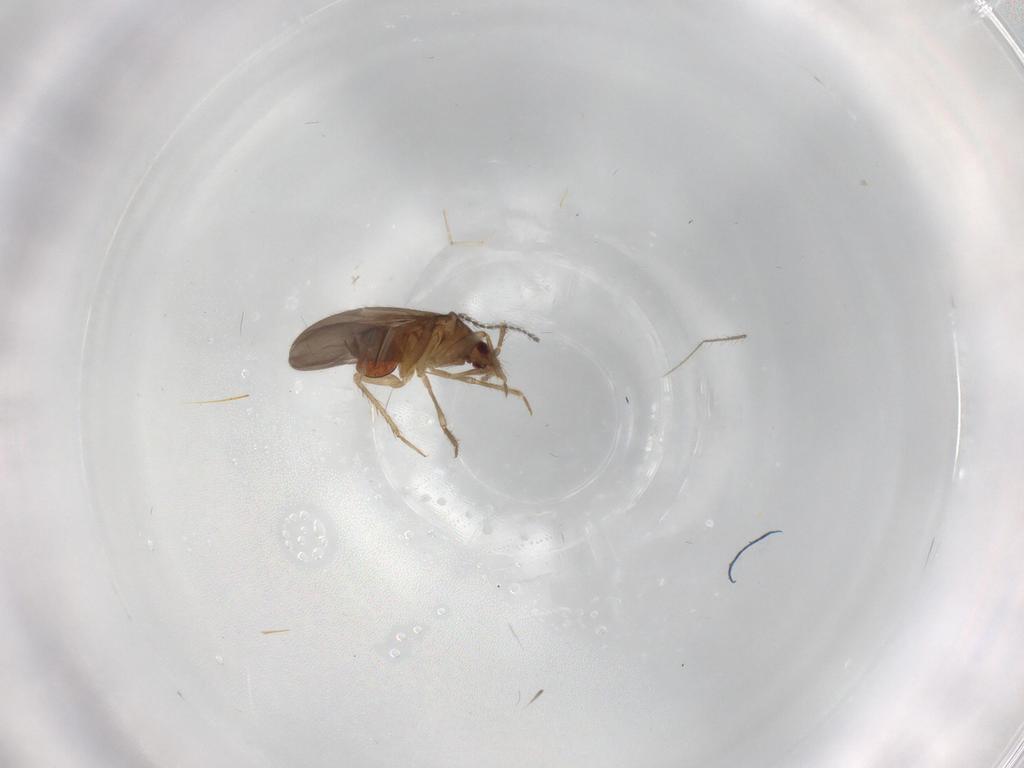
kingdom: Animalia
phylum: Arthropoda
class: Insecta
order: Hemiptera
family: Ceratocombidae
